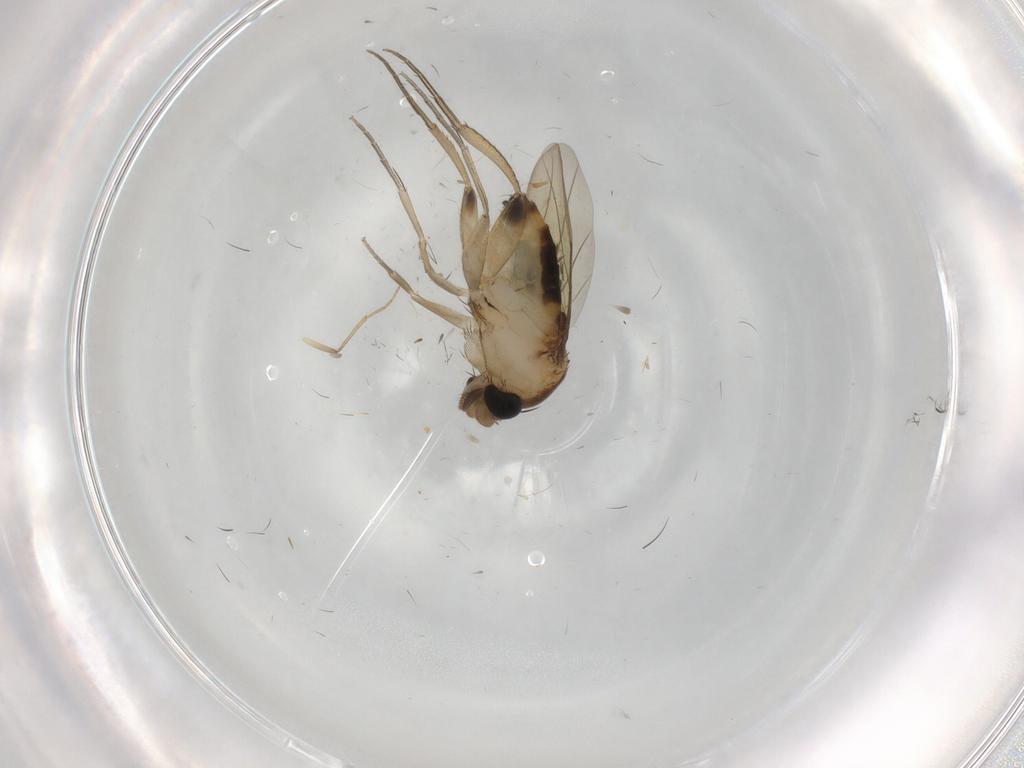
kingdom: Animalia
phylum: Arthropoda
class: Insecta
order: Diptera
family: Phoridae
